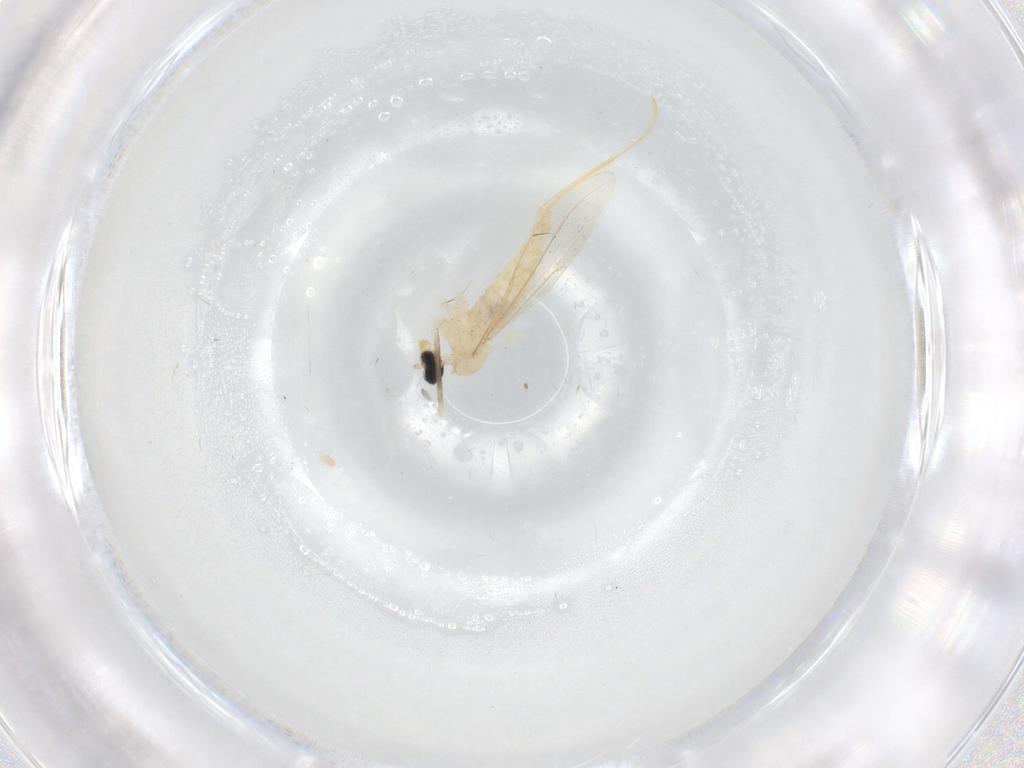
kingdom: Animalia
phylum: Arthropoda
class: Insecta
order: Diptera
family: Cecidomyiidae
